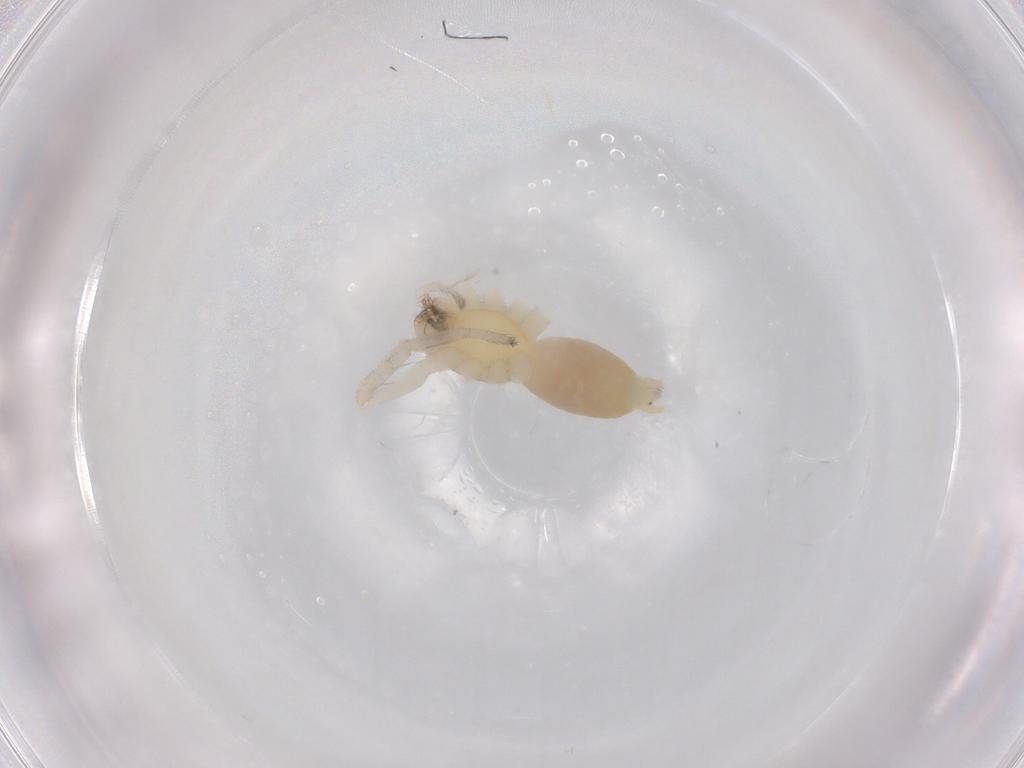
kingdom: Animalia
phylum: Arthropoda
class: Arachnida
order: Araneae
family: Anyphaenidae
